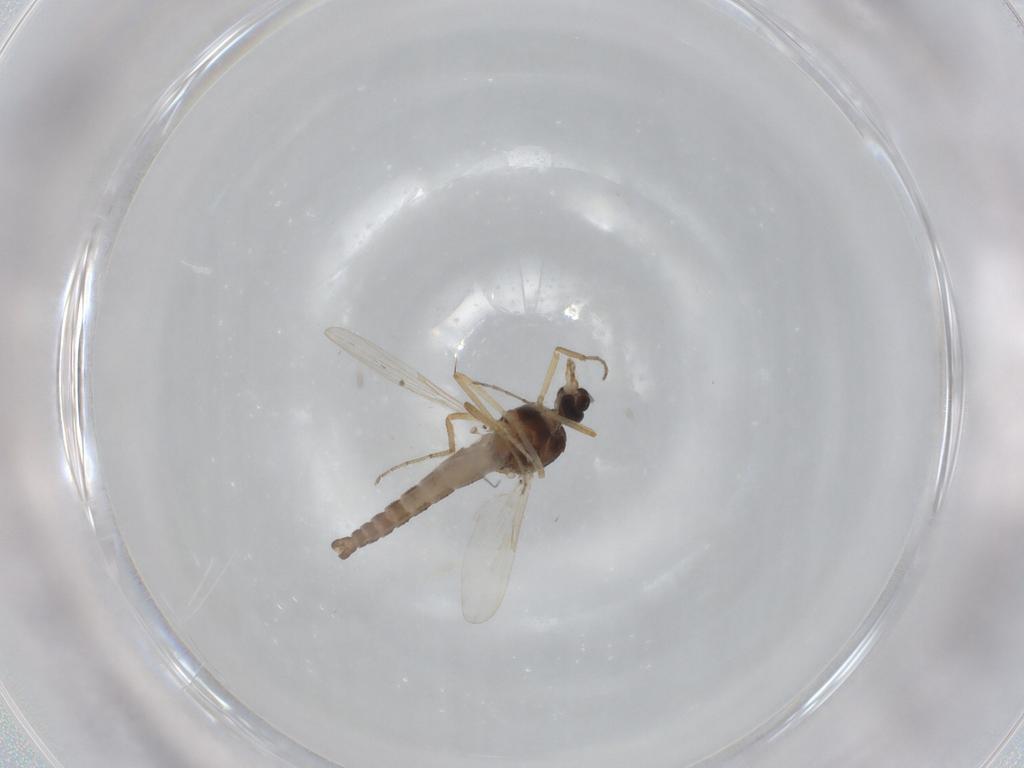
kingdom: Animalia
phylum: Arthropoda
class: Insecta
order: Diptera
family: Ceratopogonidae
